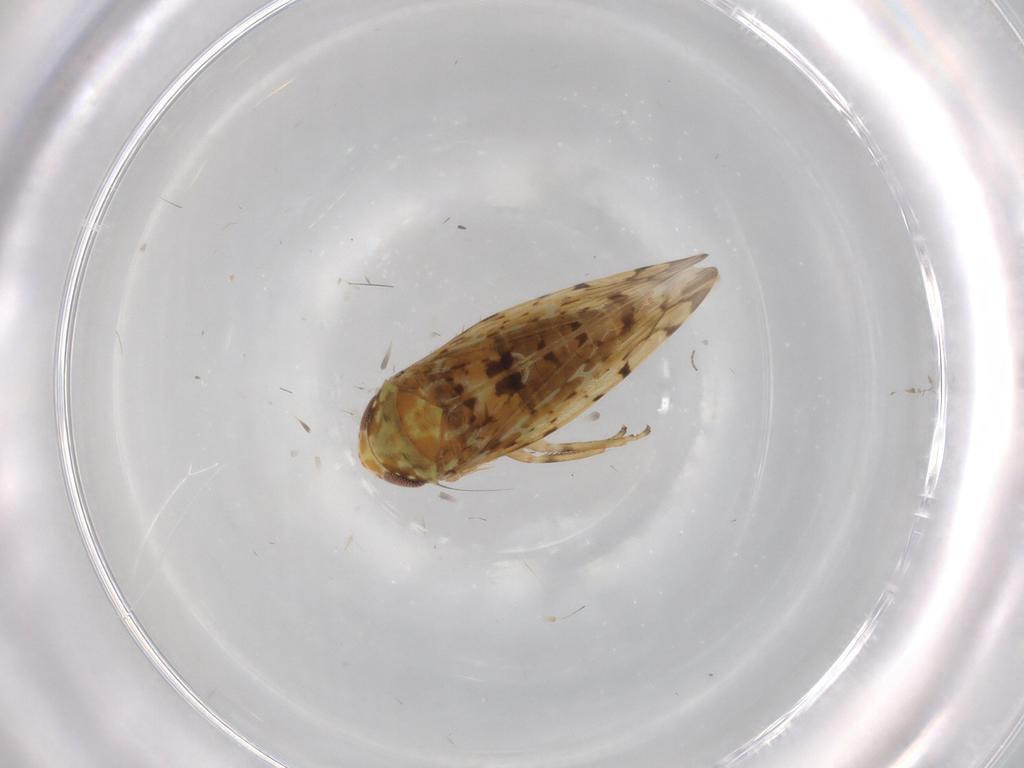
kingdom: Animalia
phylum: Arthropoda
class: Insecta
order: Hemiptera
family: Cicadellidae
